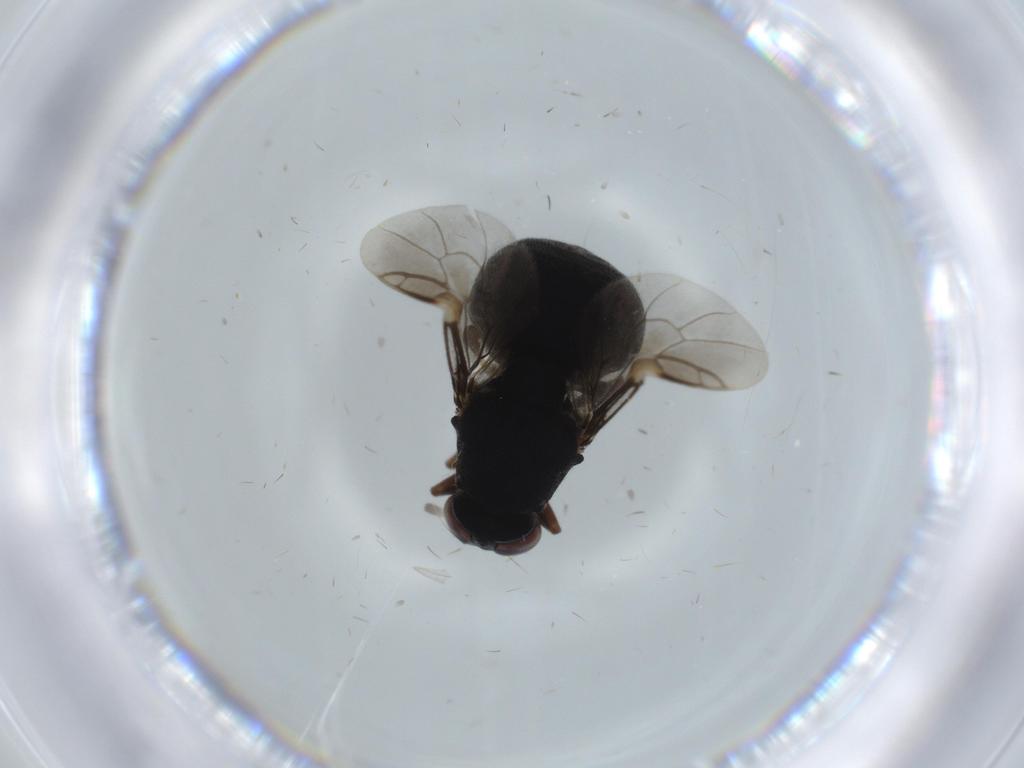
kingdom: Animalia
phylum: Arthropoda
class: Insecta
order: Diptera
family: Stratiomyidae
